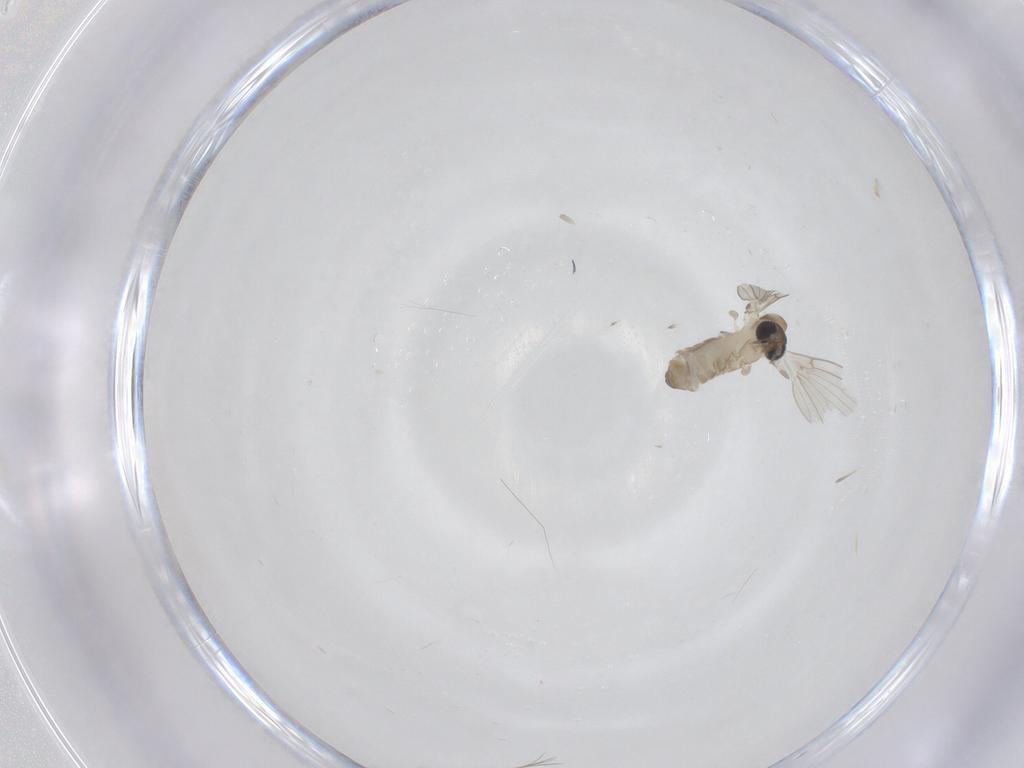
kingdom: Animalia
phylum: Arthropoda
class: Insecta
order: Diptera
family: Psychodidae
